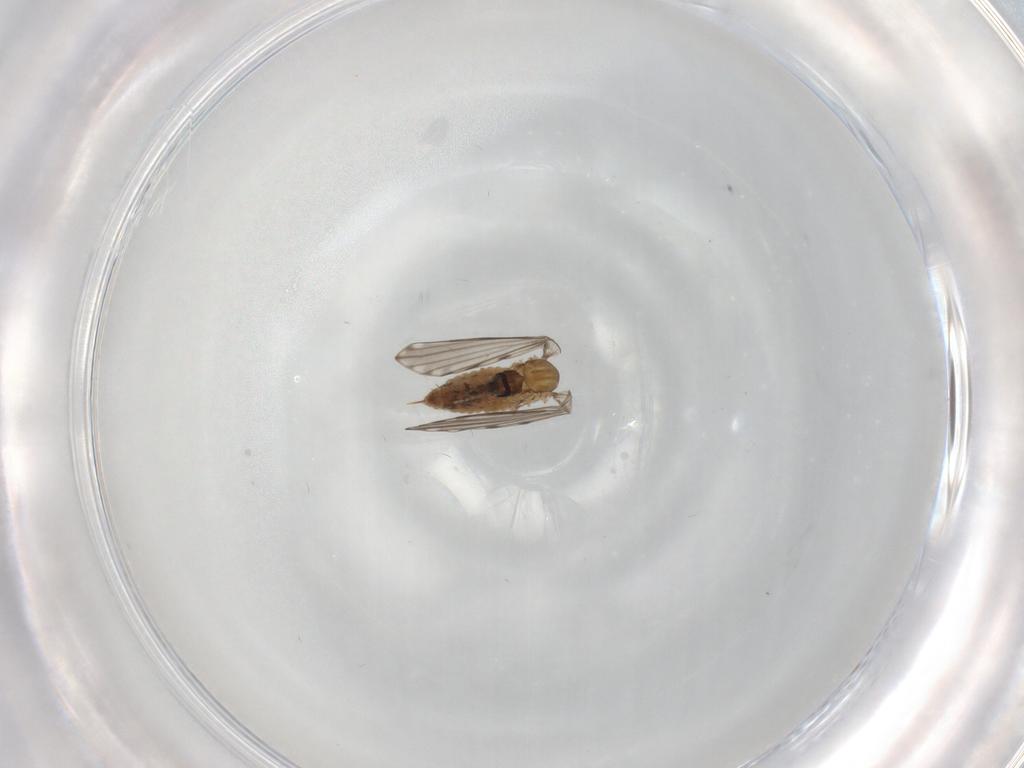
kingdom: Animalia
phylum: Arthropoda
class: Insecta
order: Diptera
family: Psychodidae
